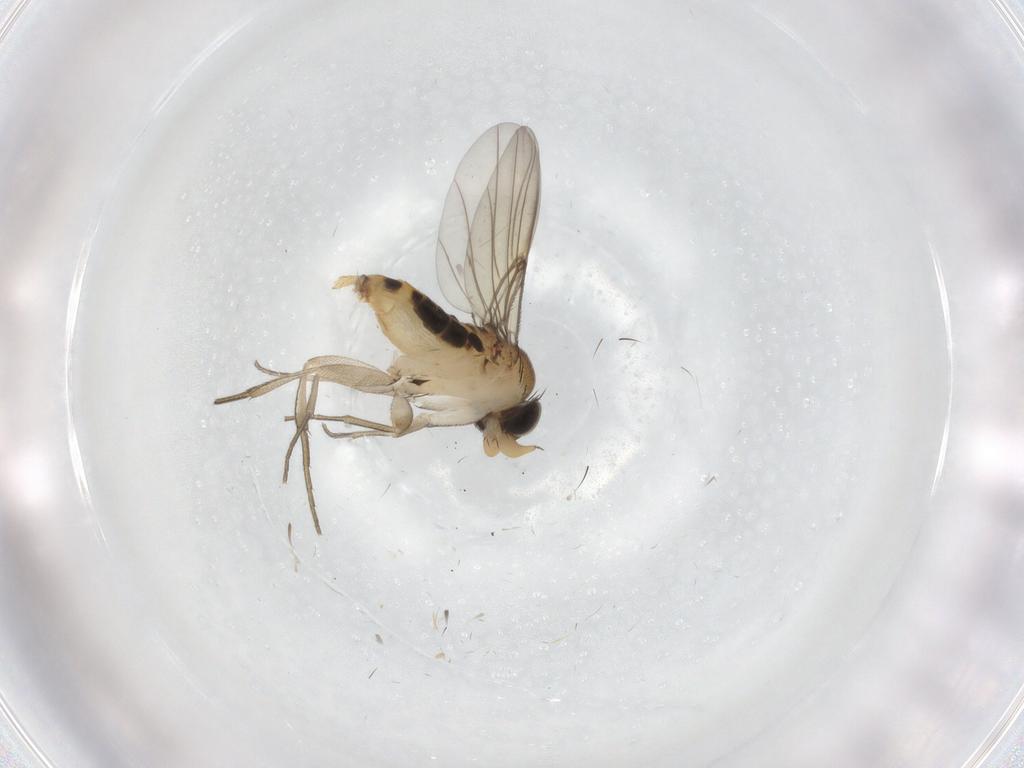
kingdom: Animalia
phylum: Arthropoda
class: Insecta
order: Diptera
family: Phoridae
